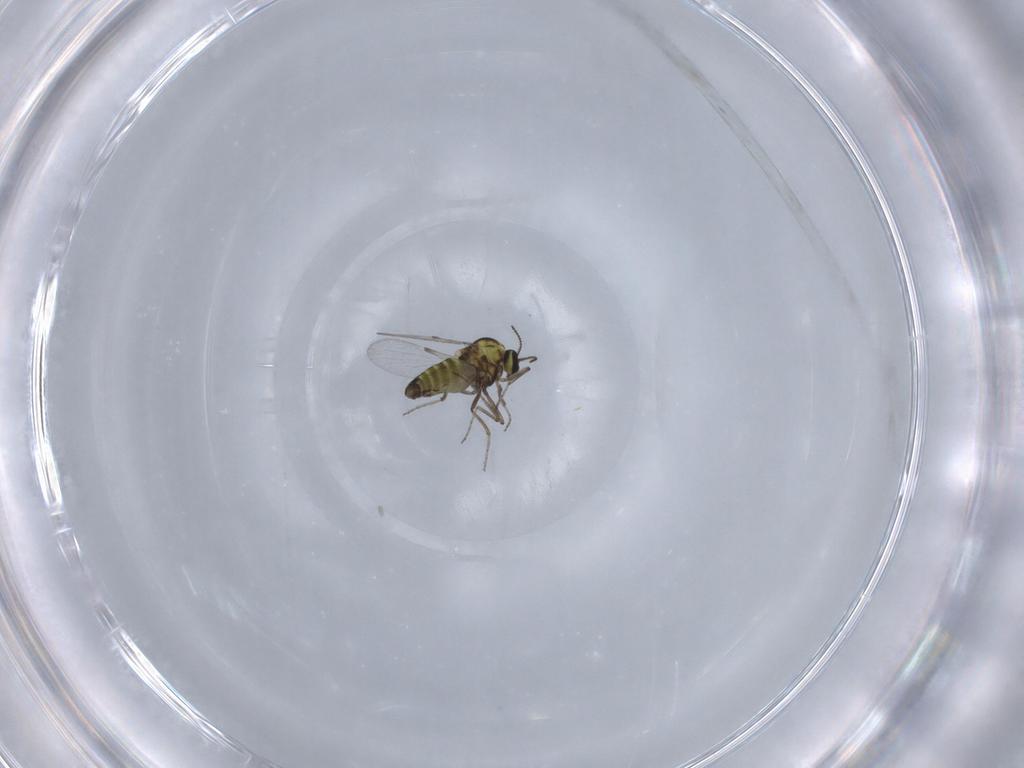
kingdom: Animalia
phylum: Arthropoda
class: Insecta
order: Diptera
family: Ceratopogonidae
